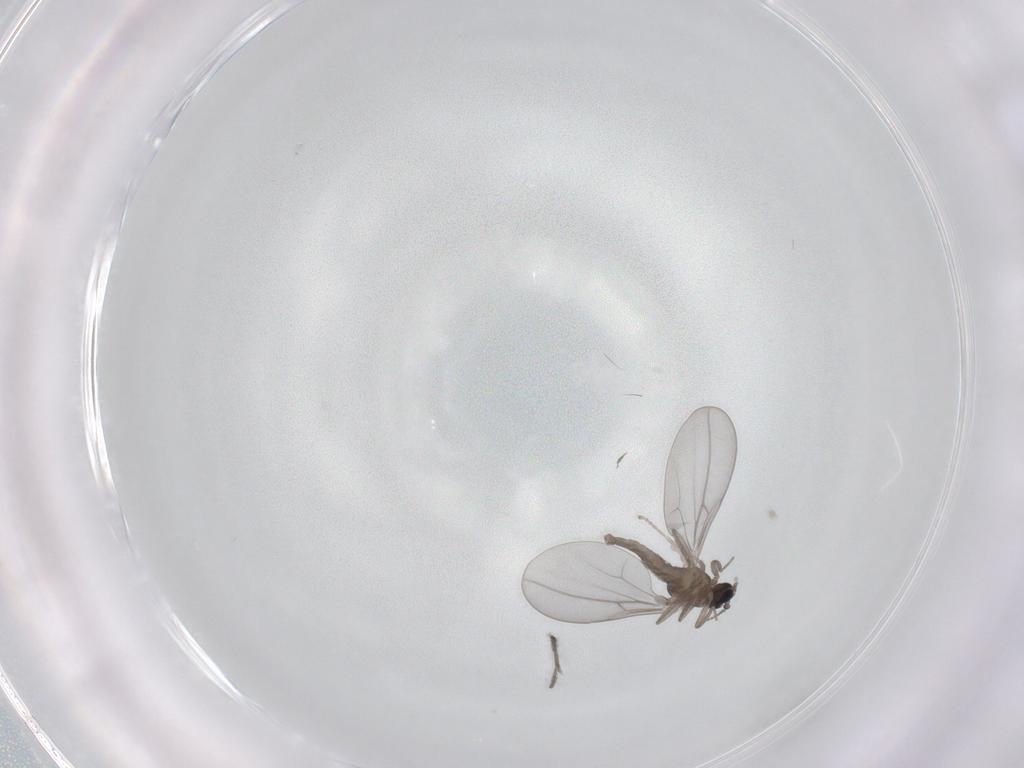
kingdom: Animalia
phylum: Arthropoda
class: Insecta
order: Diptera
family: Cecidomyiidae
